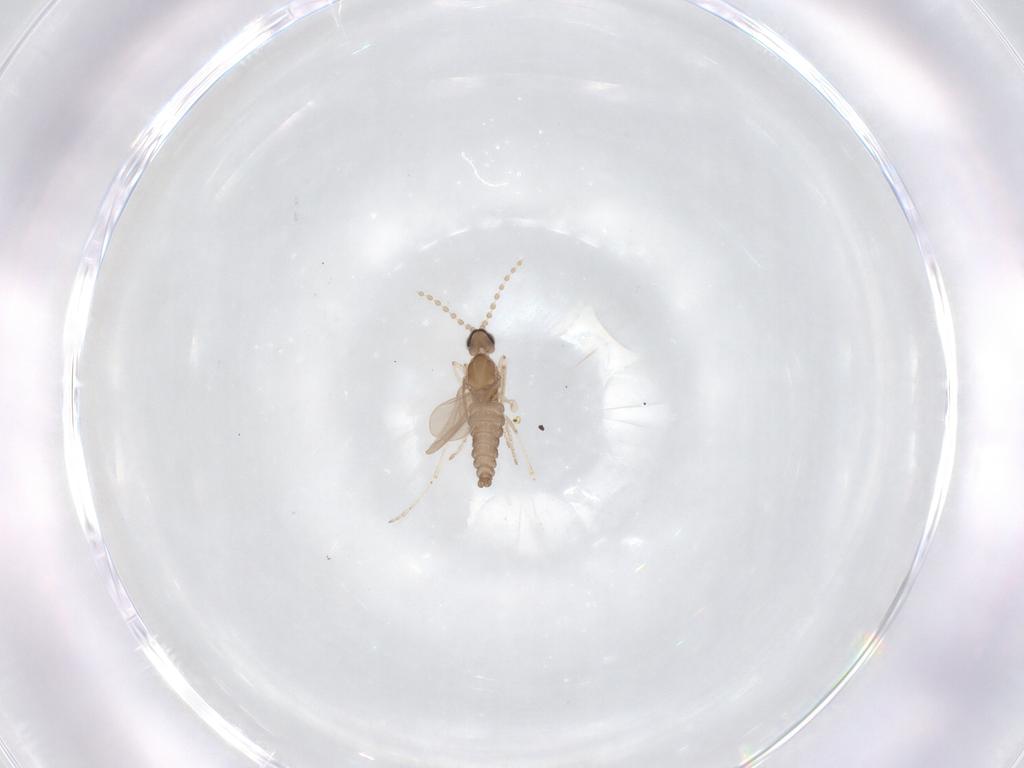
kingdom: Animalia
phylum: Arthropoda
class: Insecta
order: Diptera
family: Cecidomyiidae
